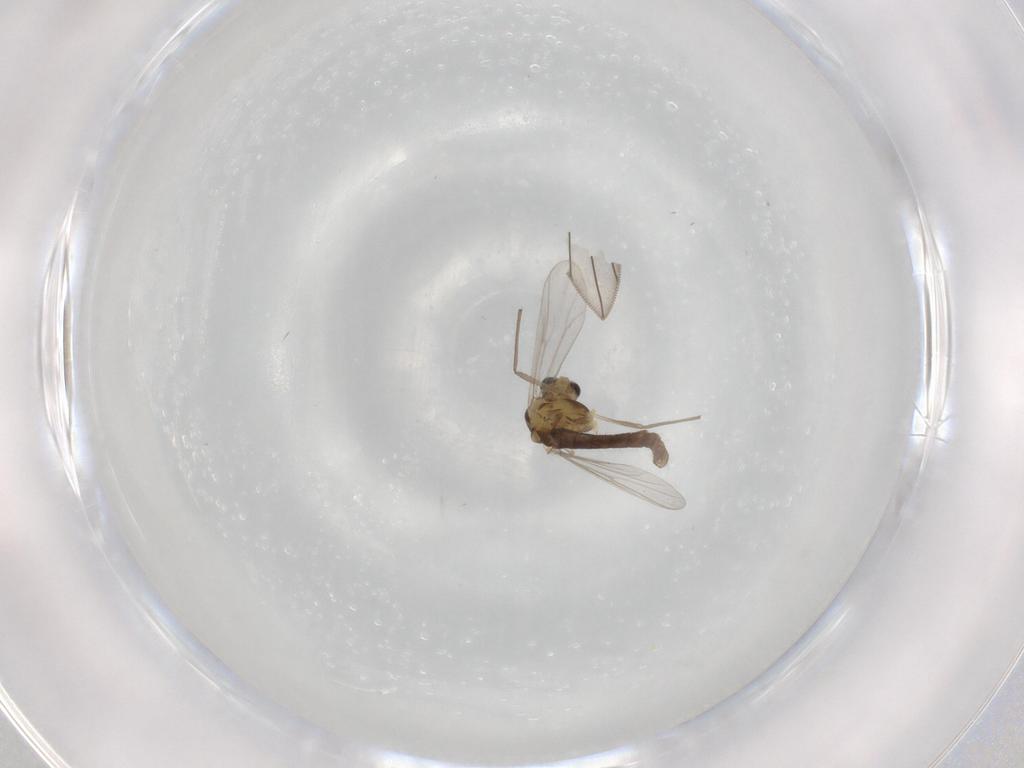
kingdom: Animalia
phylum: Arthropoda
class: Insecta
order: Diptera
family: Chironomidae
